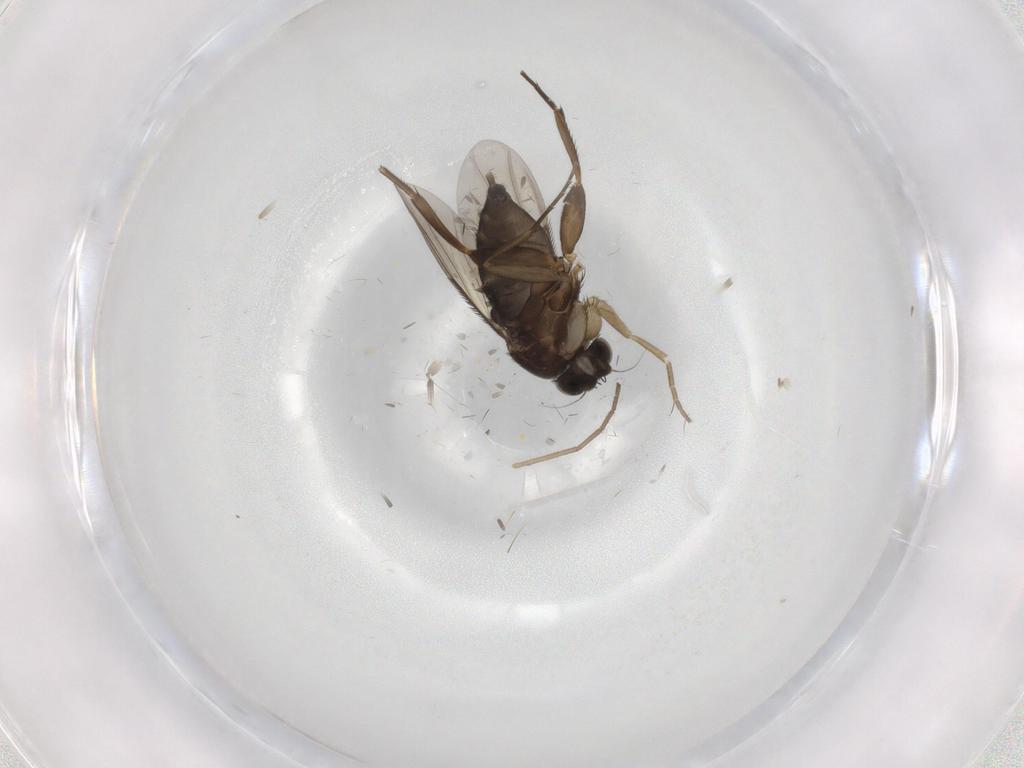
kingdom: Animalia
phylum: Arthropoda
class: Insecta
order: Diptera
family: Phoridae
